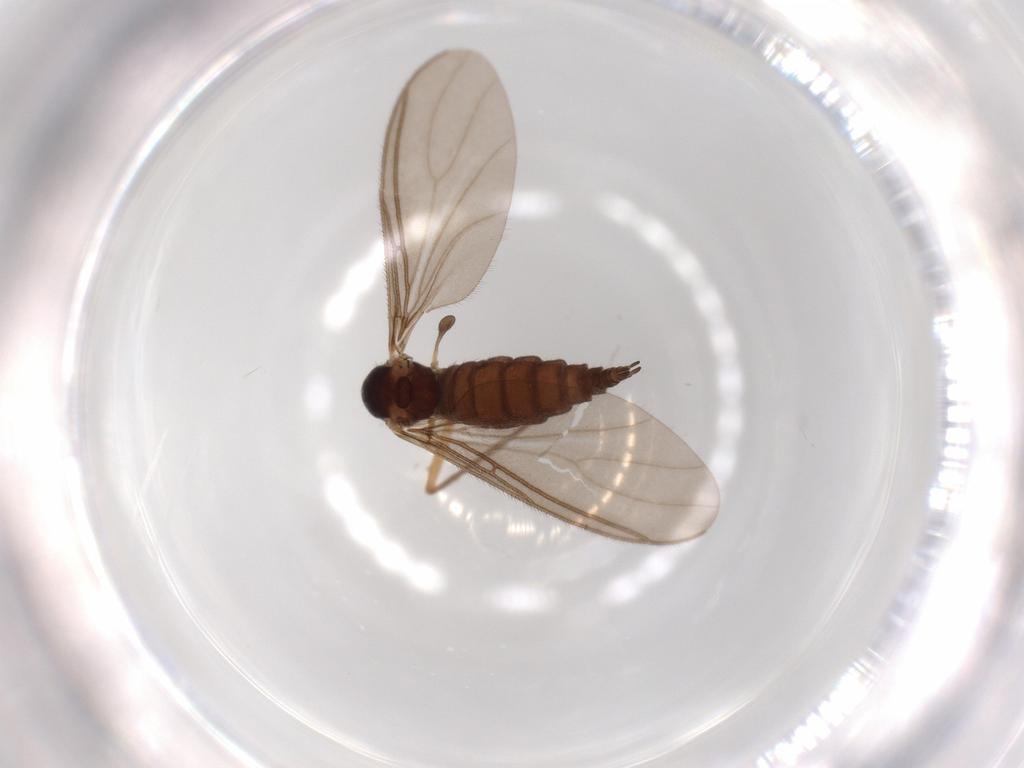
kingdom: Animalia
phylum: Arthropoda
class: Insecta
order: Diptera
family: Sciaridae
